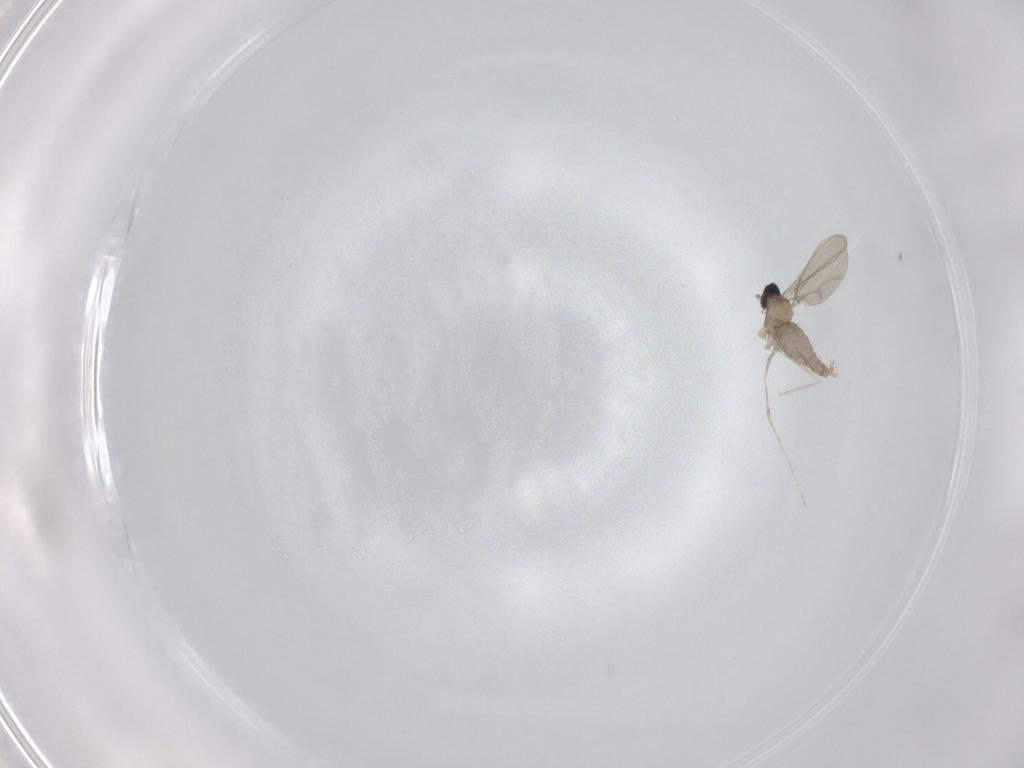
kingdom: Animalia
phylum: Arthropoda
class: Insecta
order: Diptera
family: Cecidomyiidae
